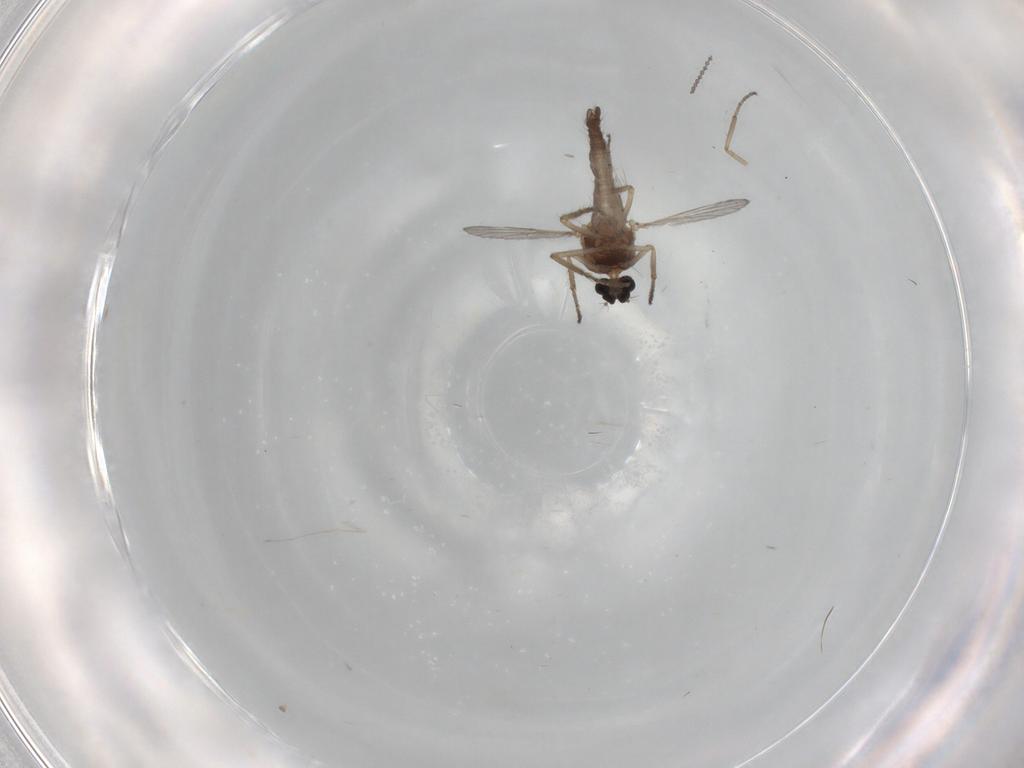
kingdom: Animalia
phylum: Arthropoda
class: Insecta
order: Diptera
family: Cecidomyiidae
